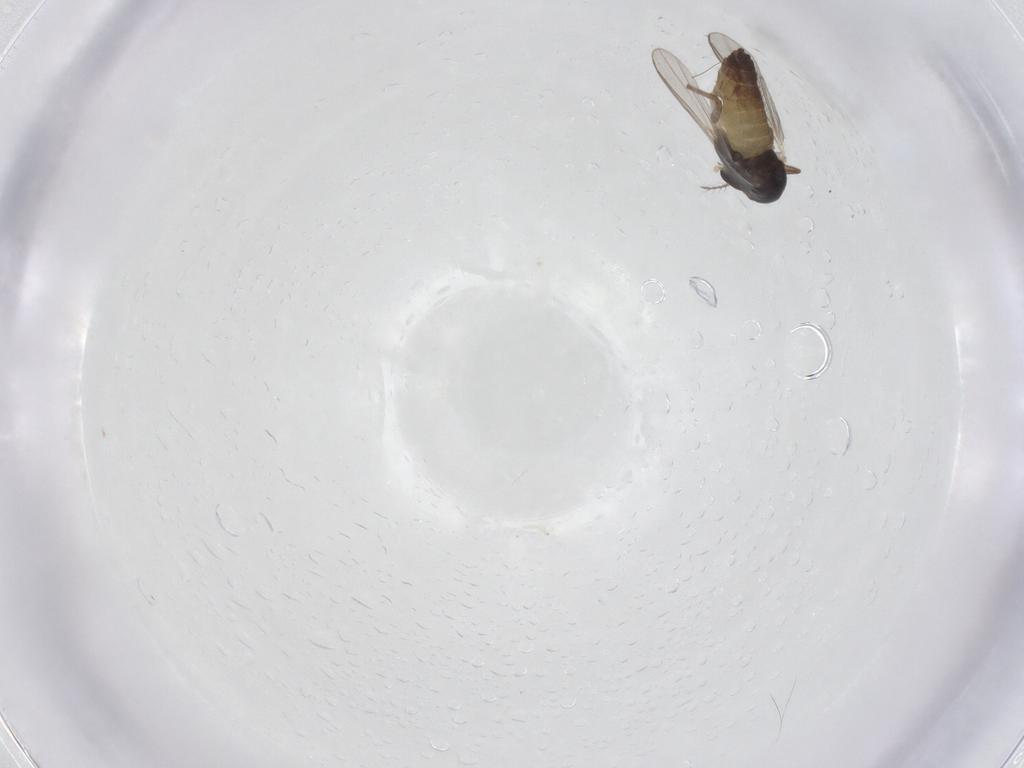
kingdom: Animalia
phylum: Arthropoda
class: Insecta
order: Diptera
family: Chironomidae
